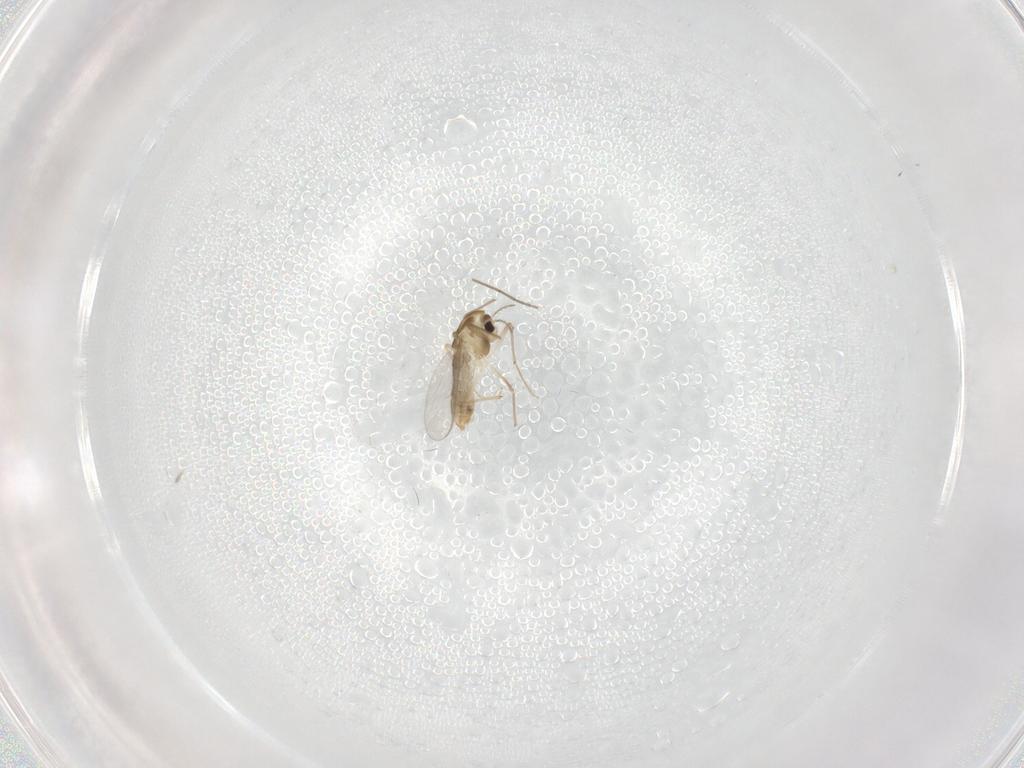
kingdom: Animalia
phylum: Arthropoda
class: Insecta
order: Diptera
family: Chironomidae
